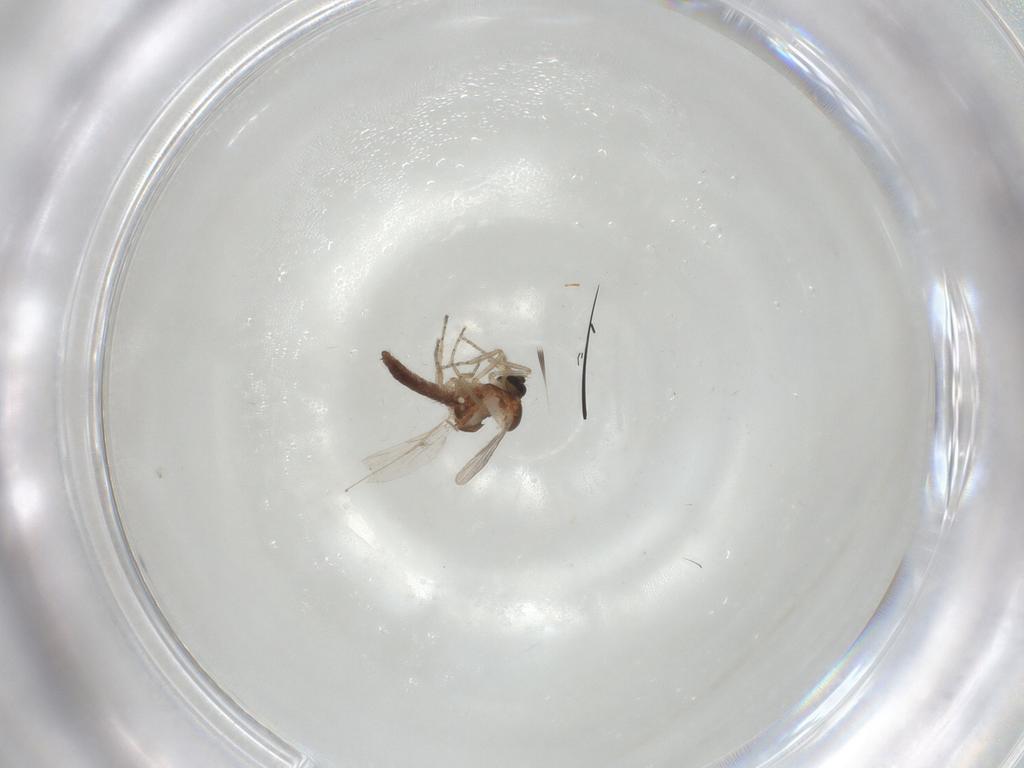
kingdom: Animalia
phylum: Arthropoda
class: Insecta
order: Diptera
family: Ceratopogonidae
